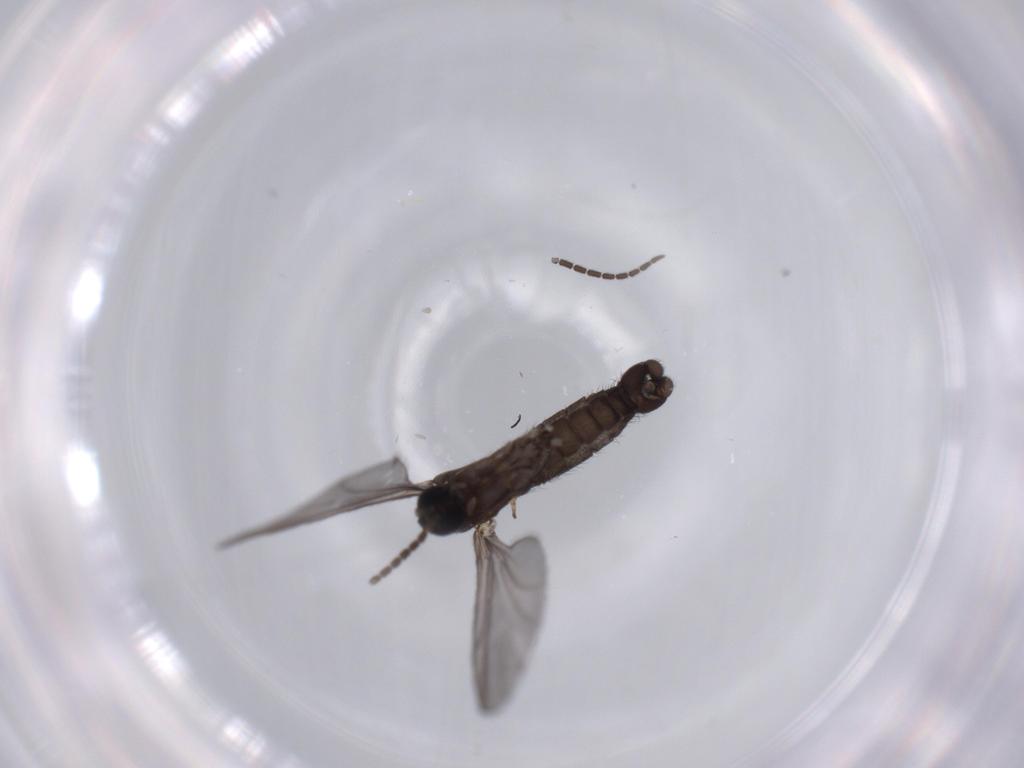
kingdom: Animalia
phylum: Arthropoda
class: Insecta
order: Diptera
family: Sciaridae
